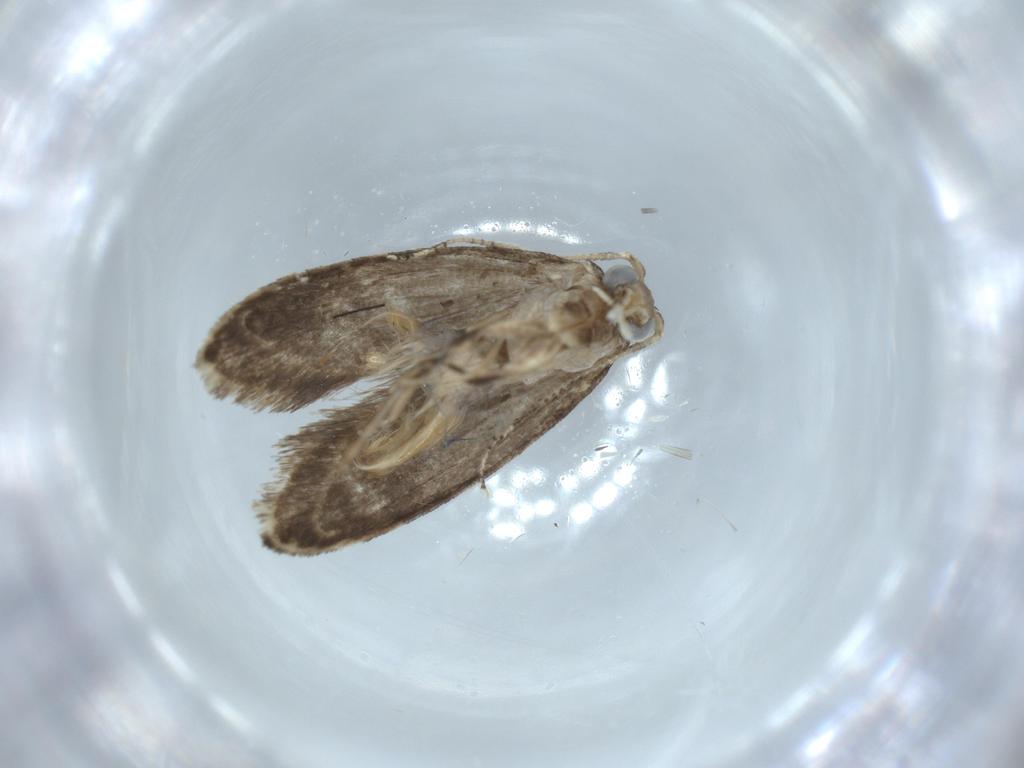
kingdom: Animalia
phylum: Arthropoda
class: Insecta
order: Lepidoptera
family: Tineidae
